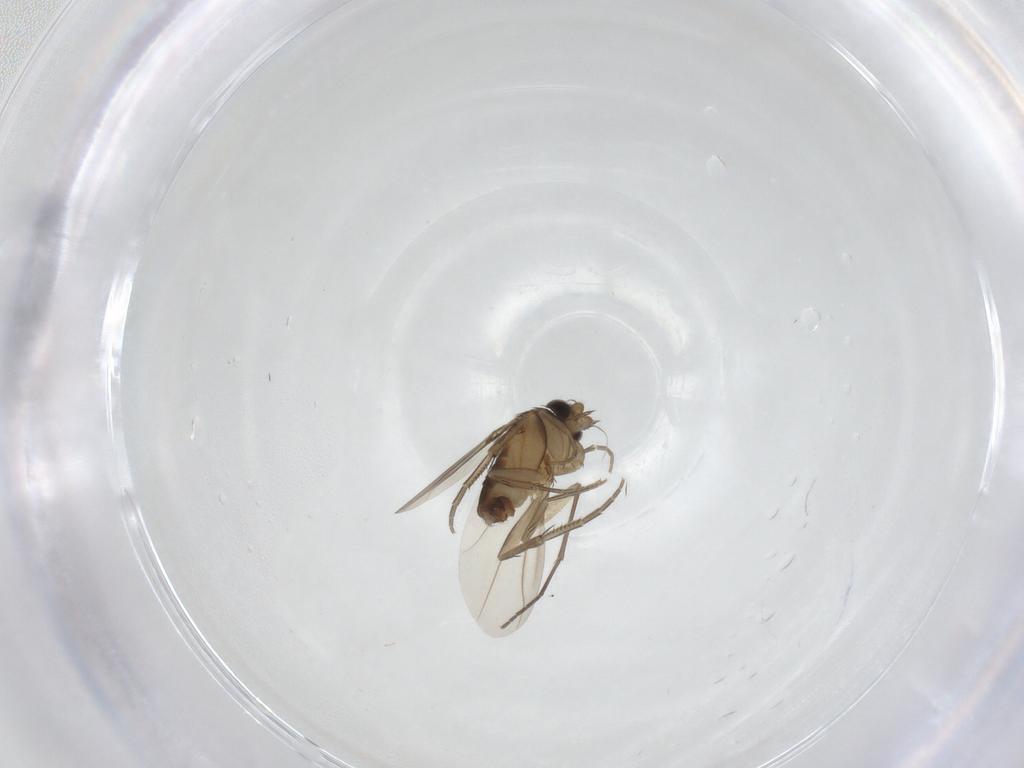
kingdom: Animalia
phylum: Arthropoda
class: Insecta
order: Diptera
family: Phoridae
